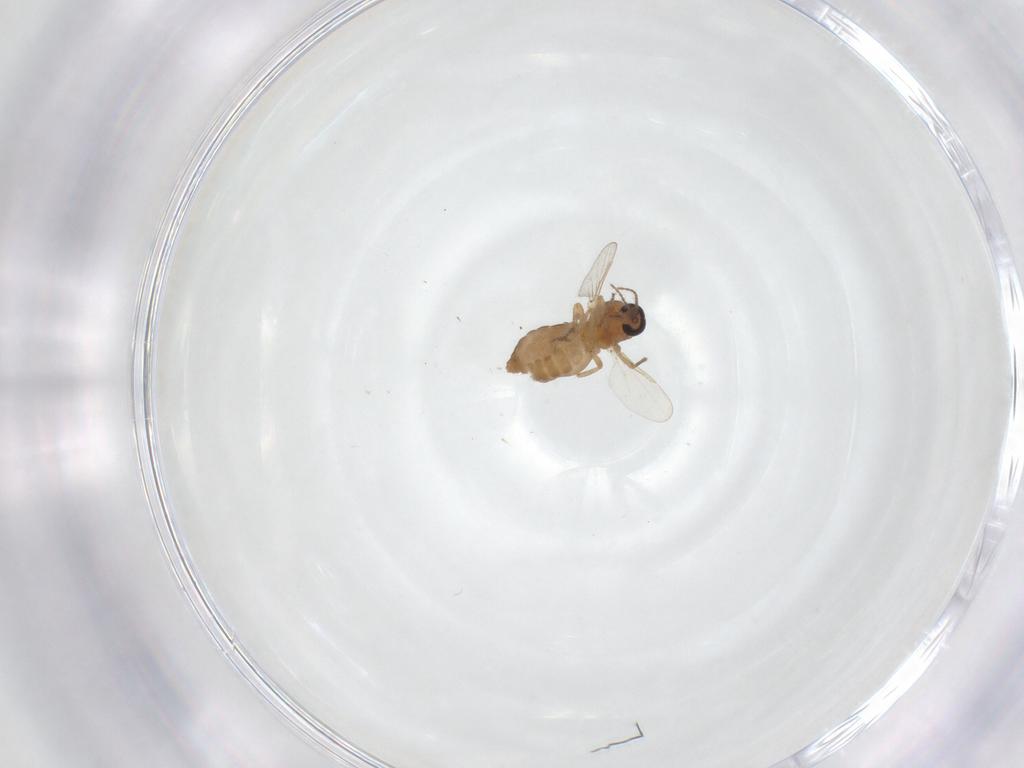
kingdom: Animalia
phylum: Arthropoda
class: Insecta
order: Diptera
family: Ceratopogonidae
